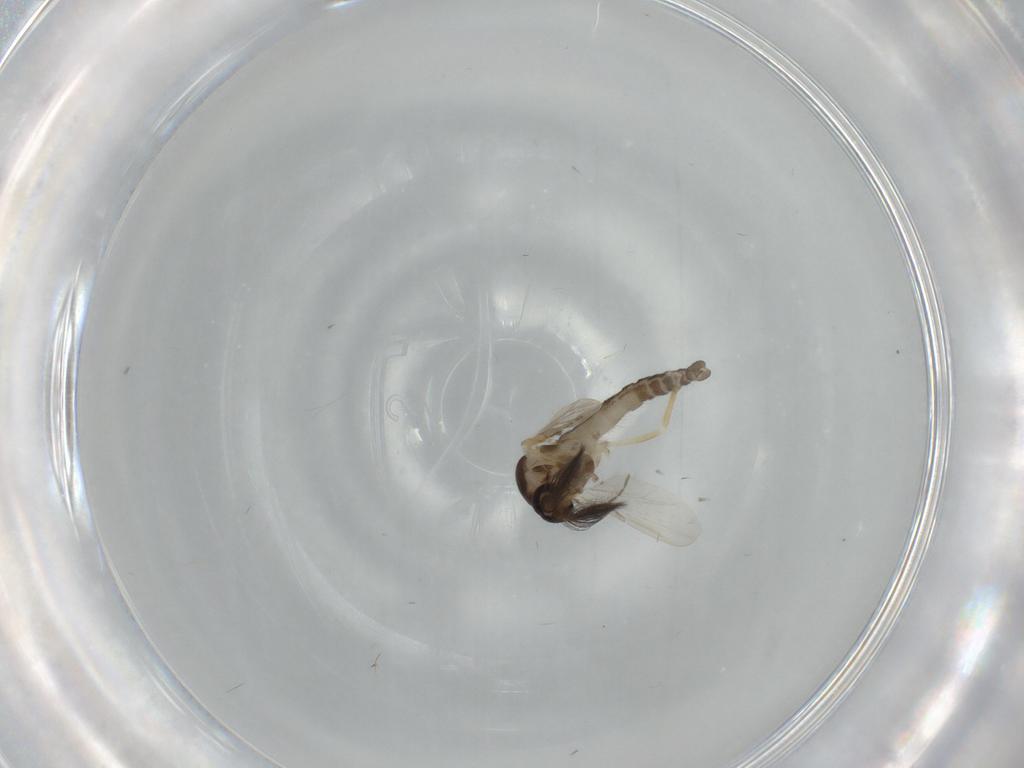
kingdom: Animalia
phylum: Arthropoda
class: Insecta
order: Diptera
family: Ceratopogonidae
